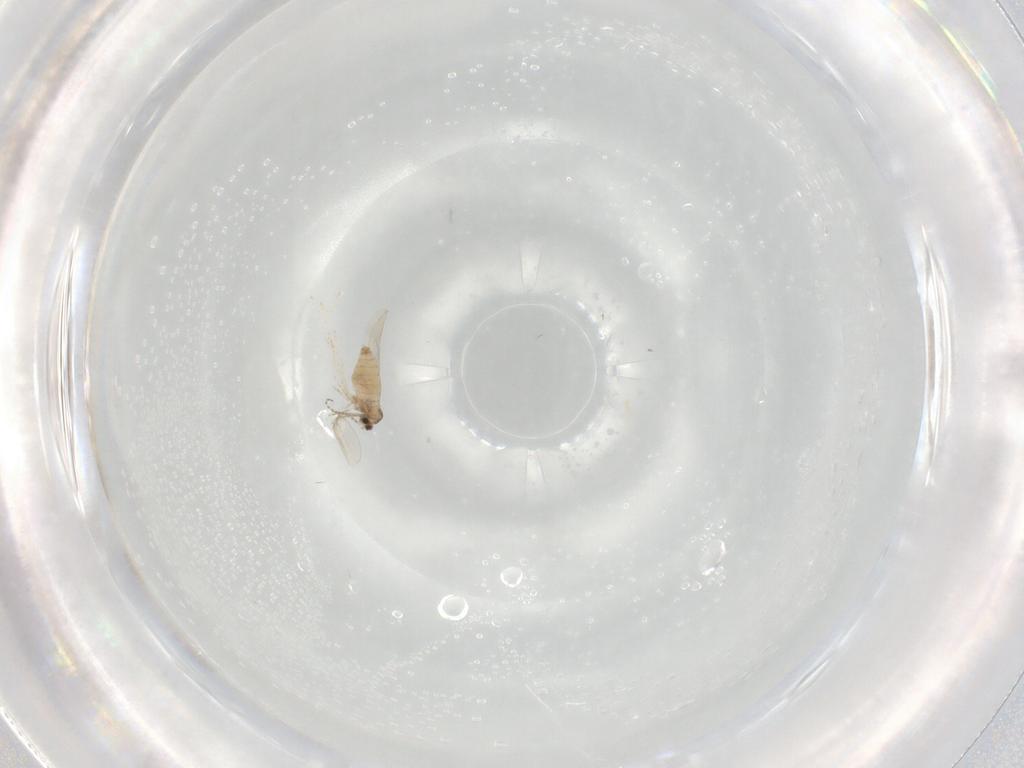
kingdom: Animalia
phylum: Arthropoda
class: Insecta
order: Diptera
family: Cecidomyiidae
